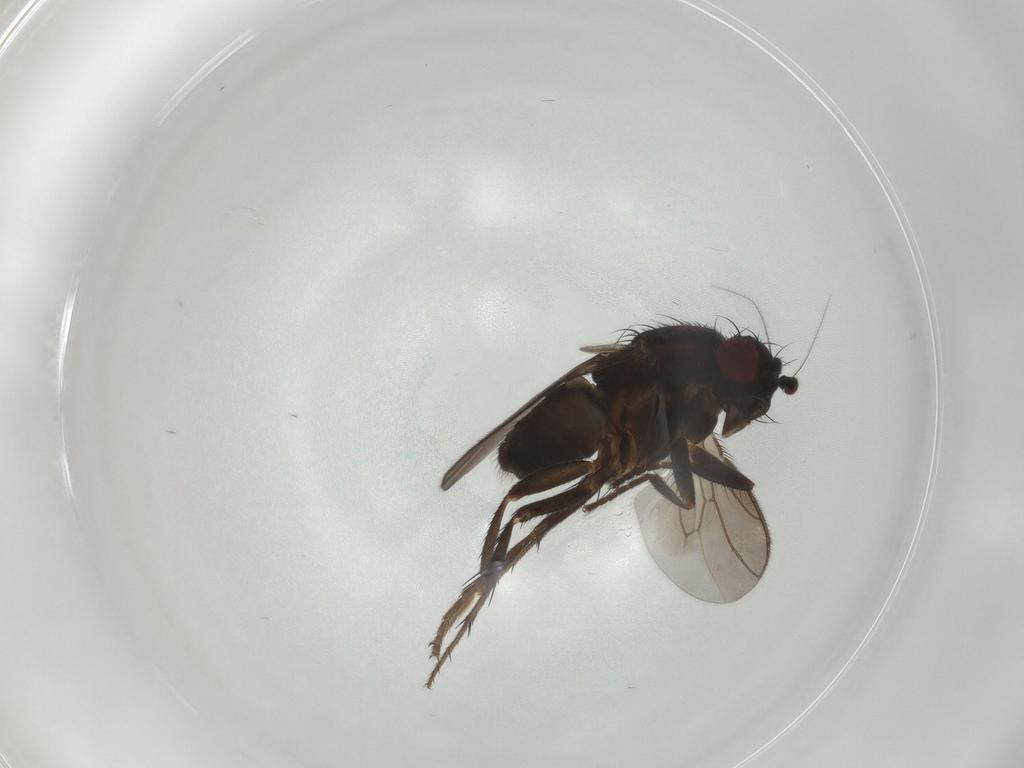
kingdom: Animalia
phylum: Arthropoda
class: Insecta
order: Diptera
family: Sphaeroceridae
